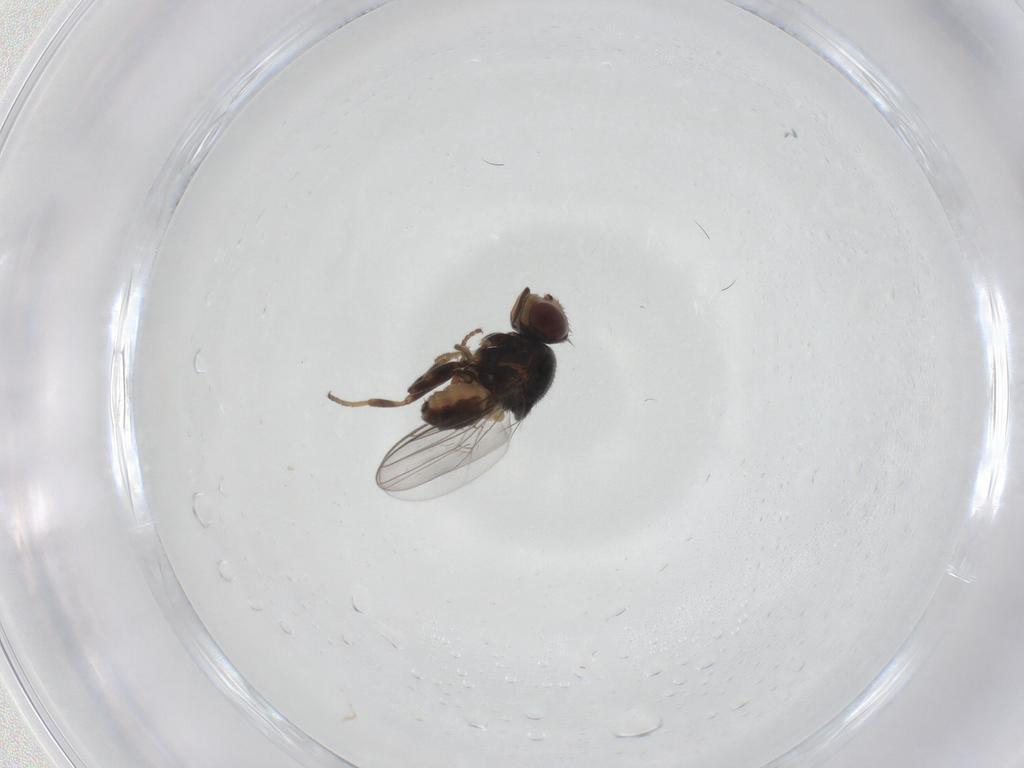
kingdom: Animalia
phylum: Arthropoda
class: Insecta
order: Diptera
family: Chloropidae
